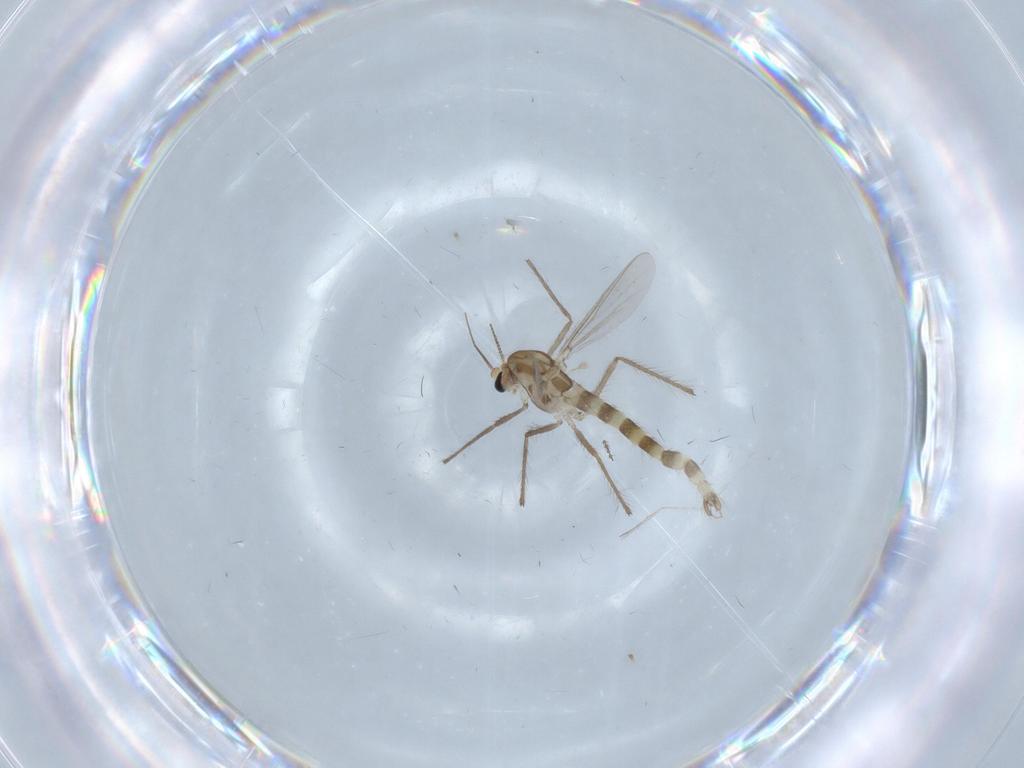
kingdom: Animalia
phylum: Arthropoda
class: Insecta
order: Diptera
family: Chironomidae
